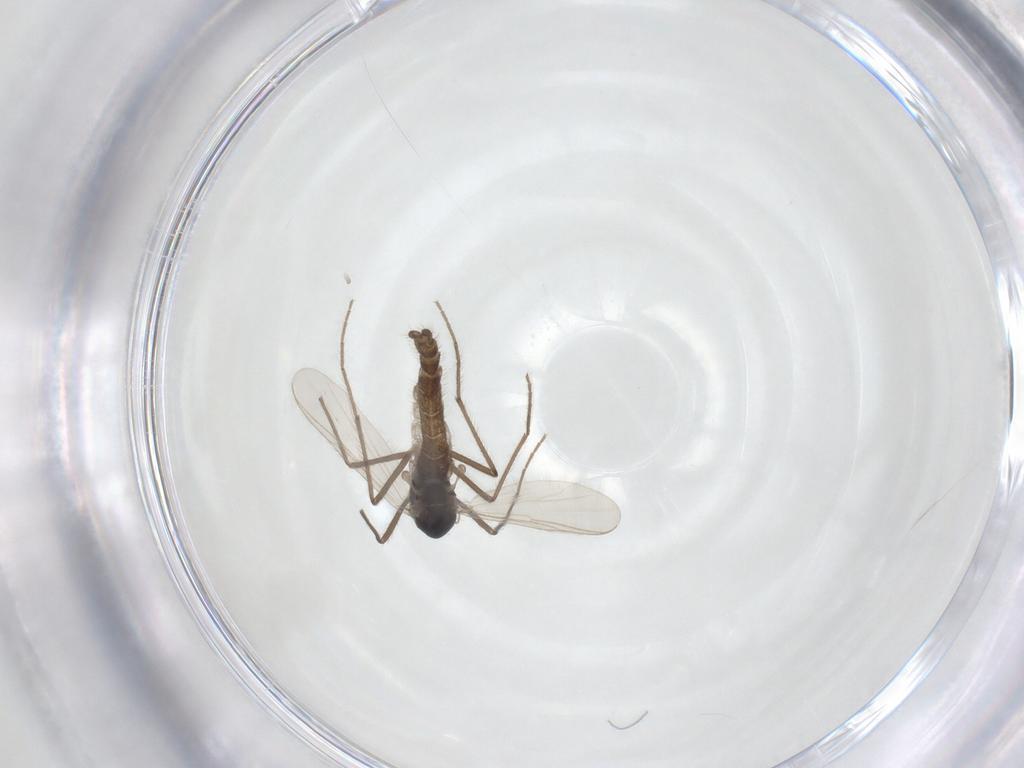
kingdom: Animalia
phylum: Arthropoda
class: Insecta
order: Diptera
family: Chironomidae
